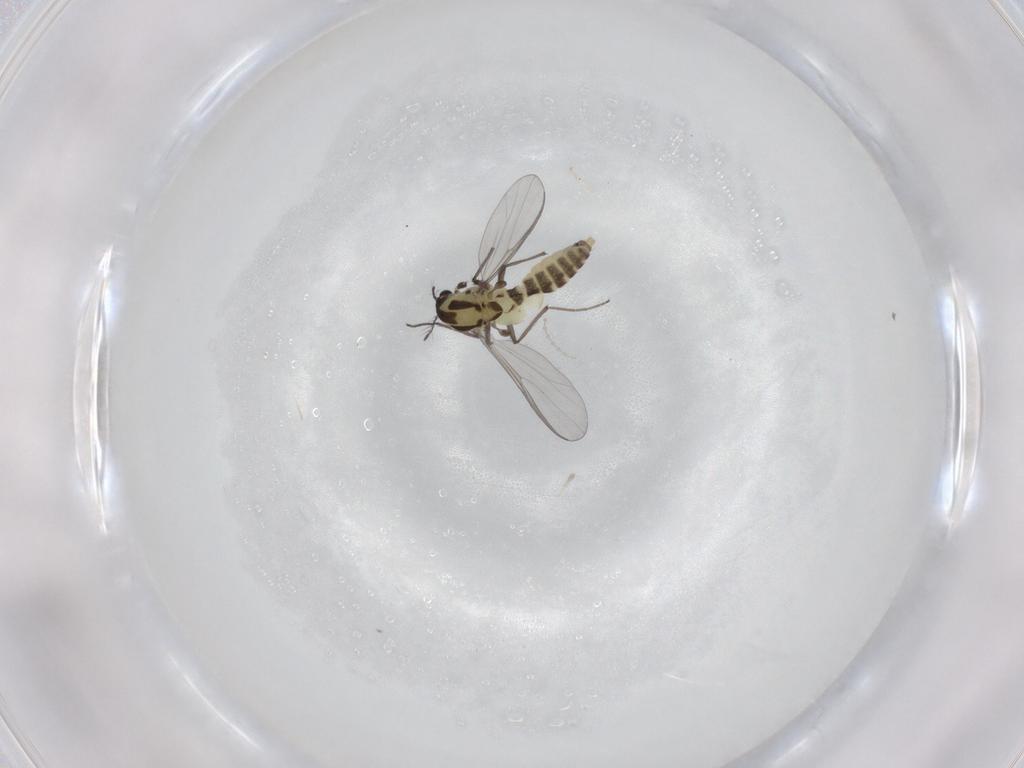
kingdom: Animalia
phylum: Arthropoda
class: Insecta
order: Diptera
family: Chironomidae
